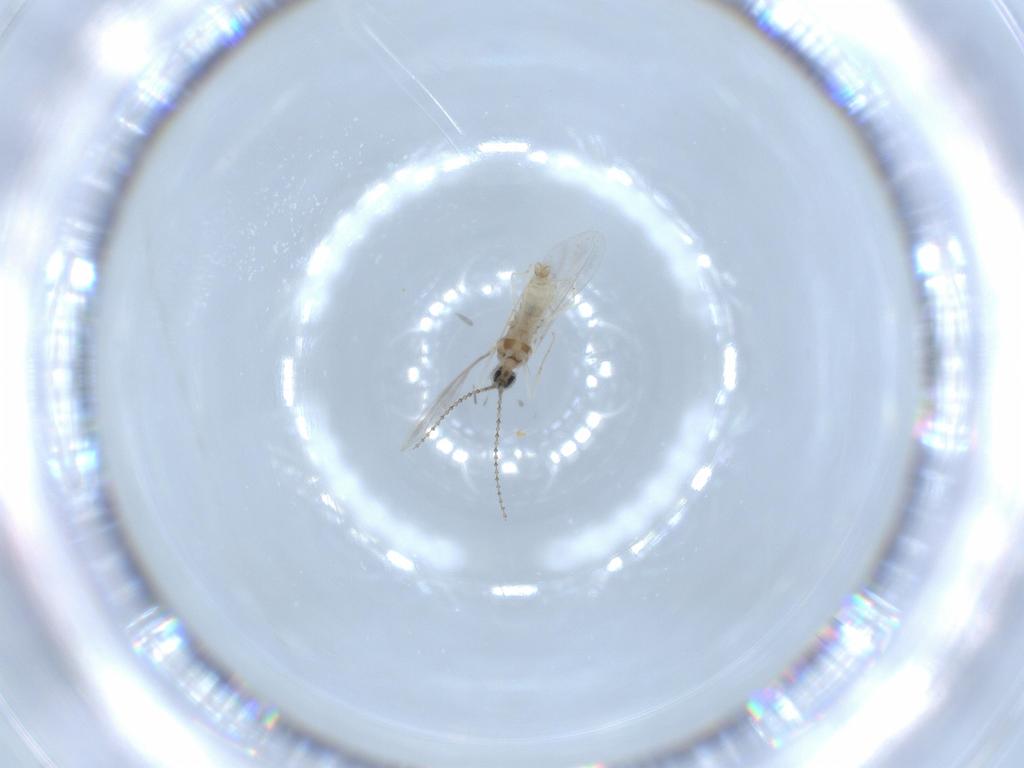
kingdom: Animalia
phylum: Arthropoda
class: Insecta
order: Diptera
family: Cecidomyiidae
